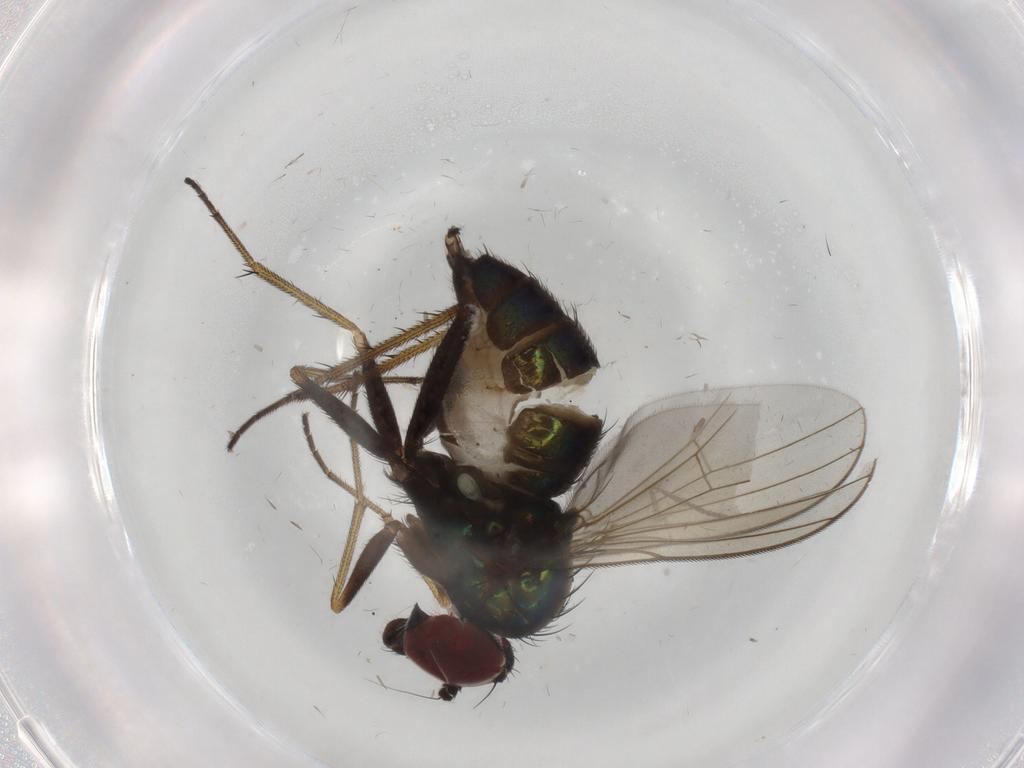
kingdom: Animalia
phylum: Arthropoda
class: Insecta
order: Diptera
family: Dolichopodidae
